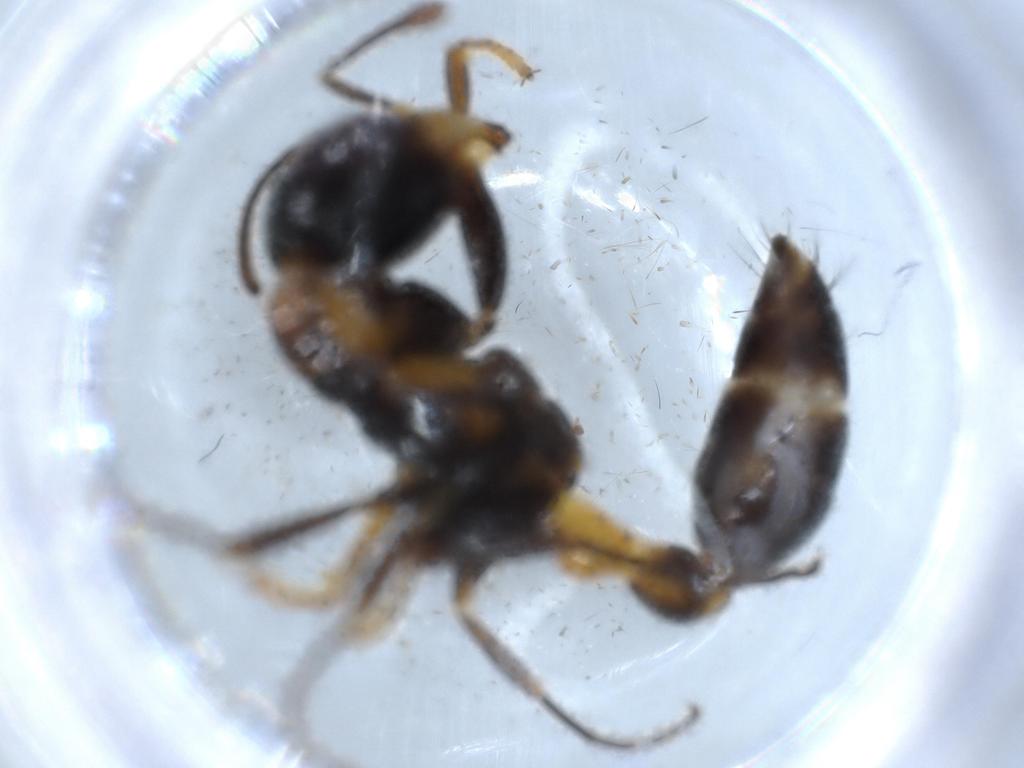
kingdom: Animalia
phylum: Arthropoda
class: Insecta
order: Hymenoptera
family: Formicidae
